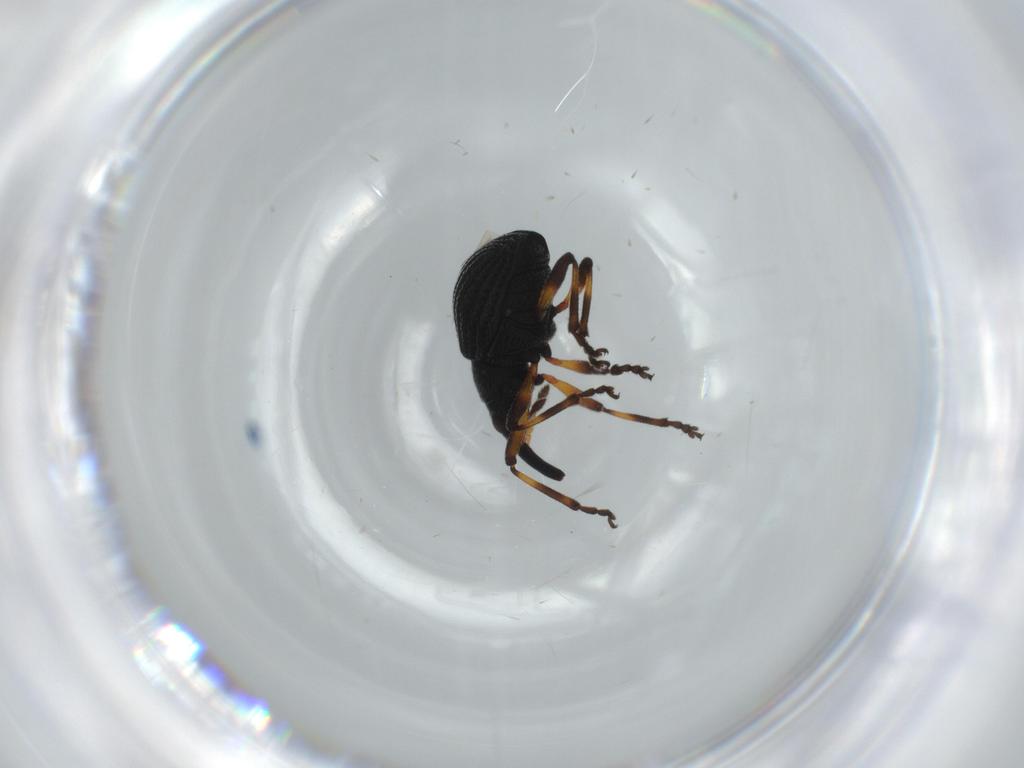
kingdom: Animalia
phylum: Arthropoda
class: Insecta
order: Coleoptera
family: Brentidae
